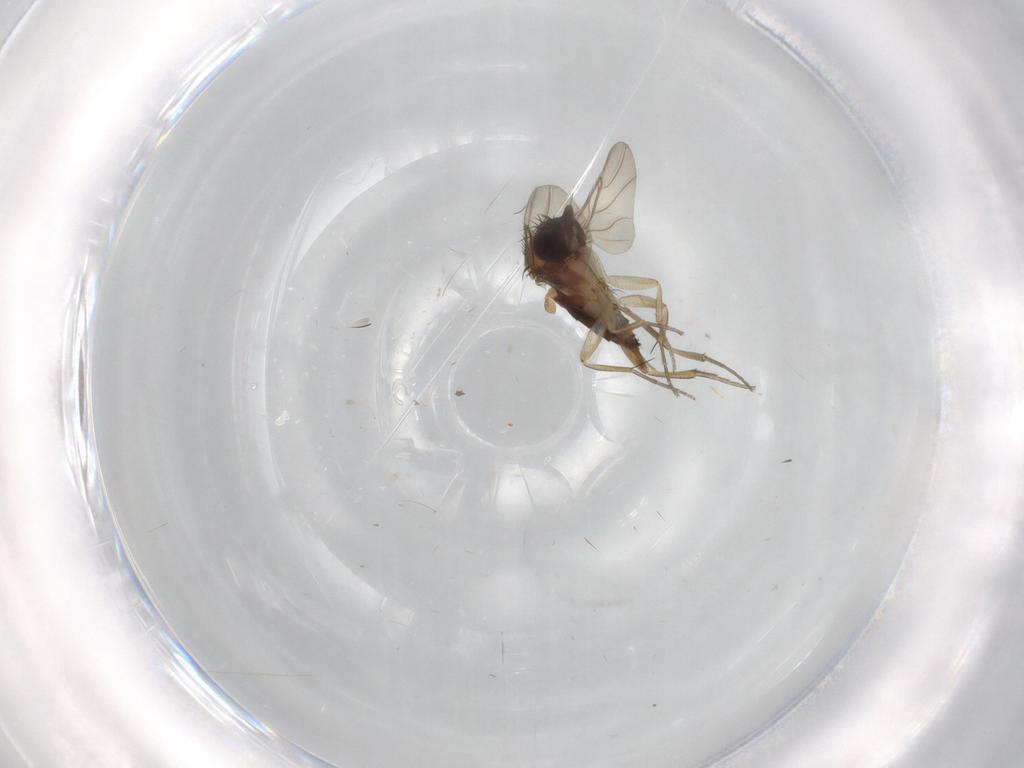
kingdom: Animalia
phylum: Arthropoda
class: Insecta
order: Diptera
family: Phoridae
